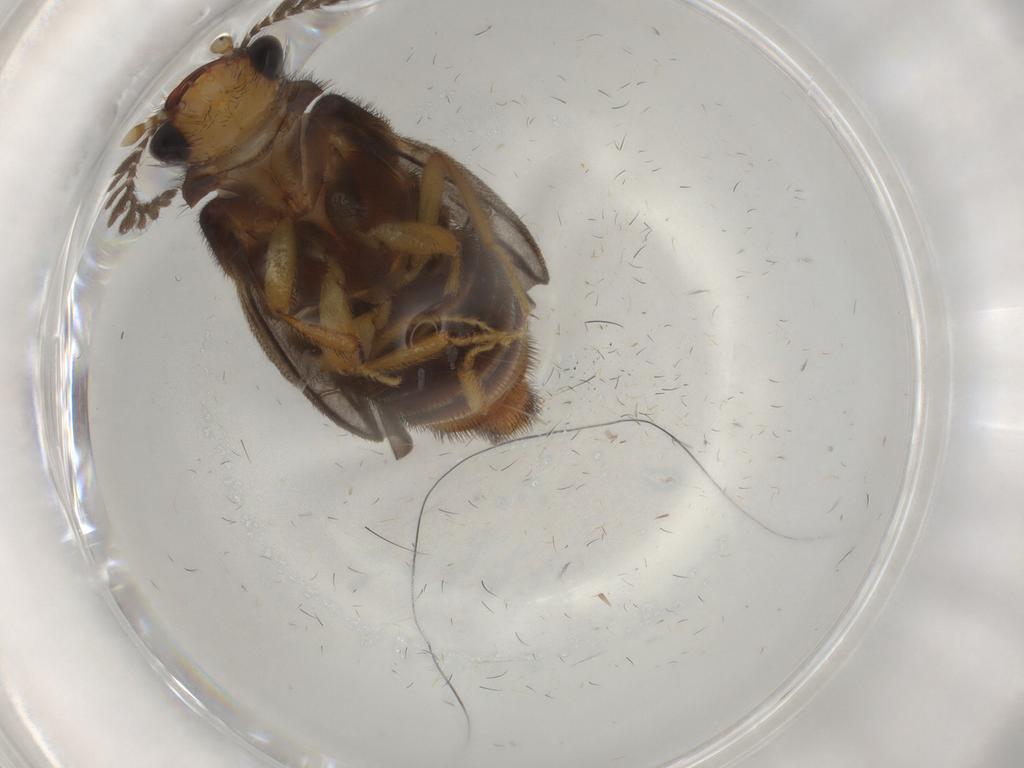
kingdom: Animalia
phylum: Arthropoda
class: Insecta
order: Coleoptera
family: Phengodidae
